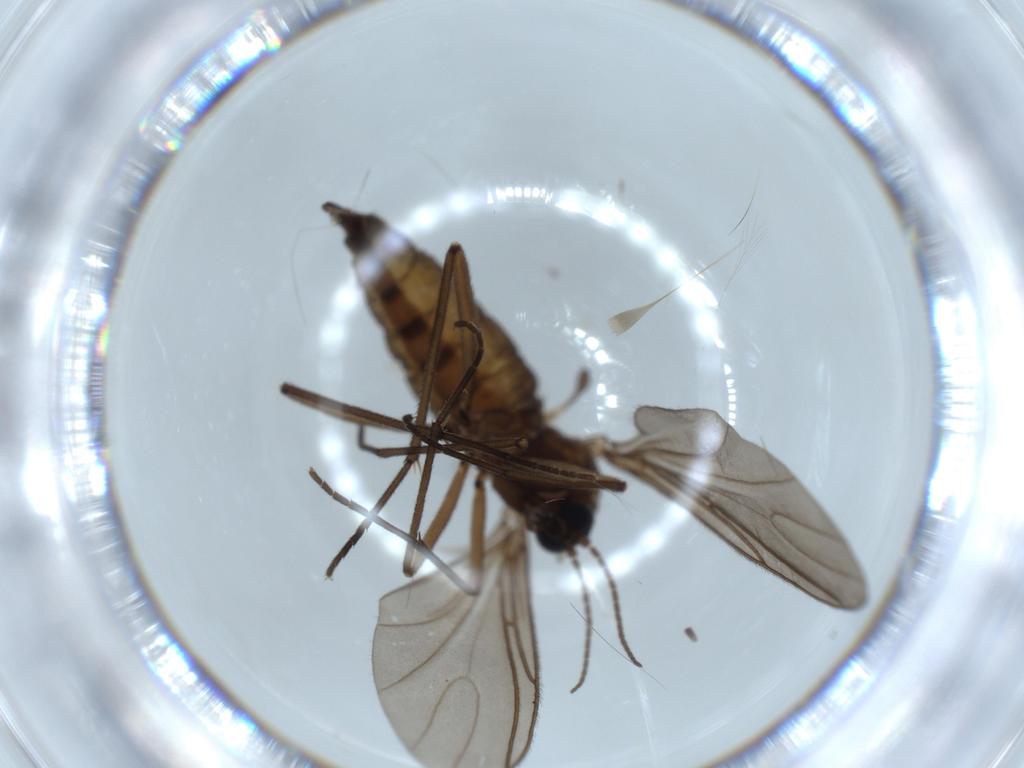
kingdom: Animalia
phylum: Arthropoda
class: Insecta
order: Diptera
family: Sciaridae
